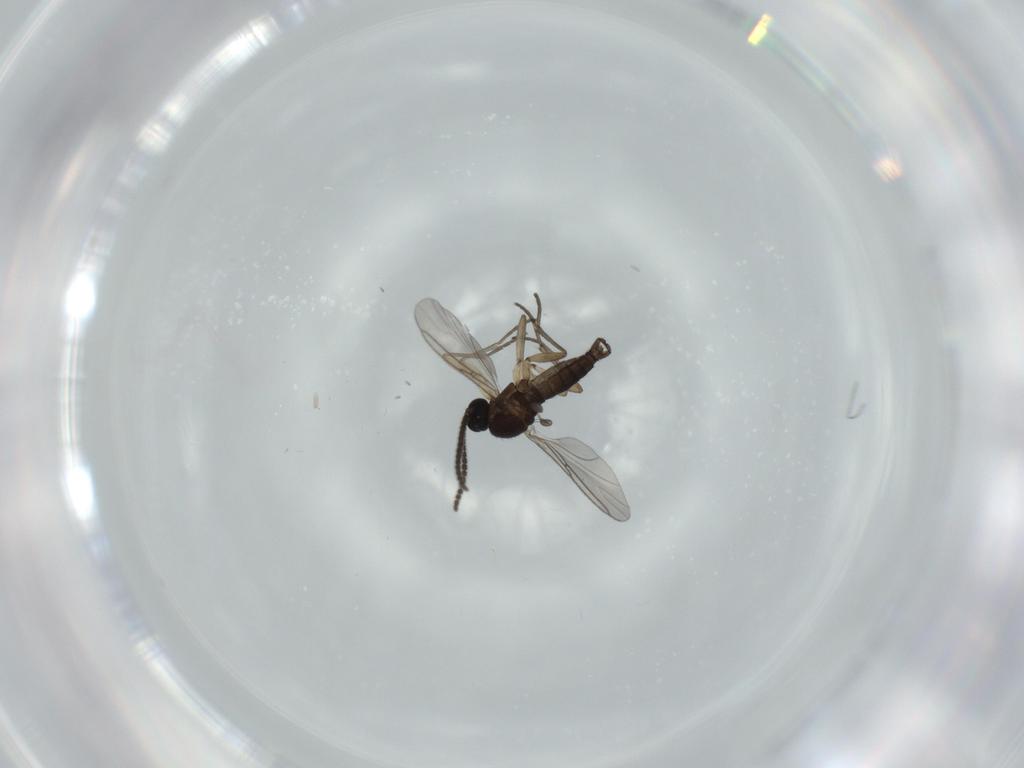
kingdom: Animalia
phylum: Arthropoda
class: Insecta
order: Diptera
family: Sciaridae
